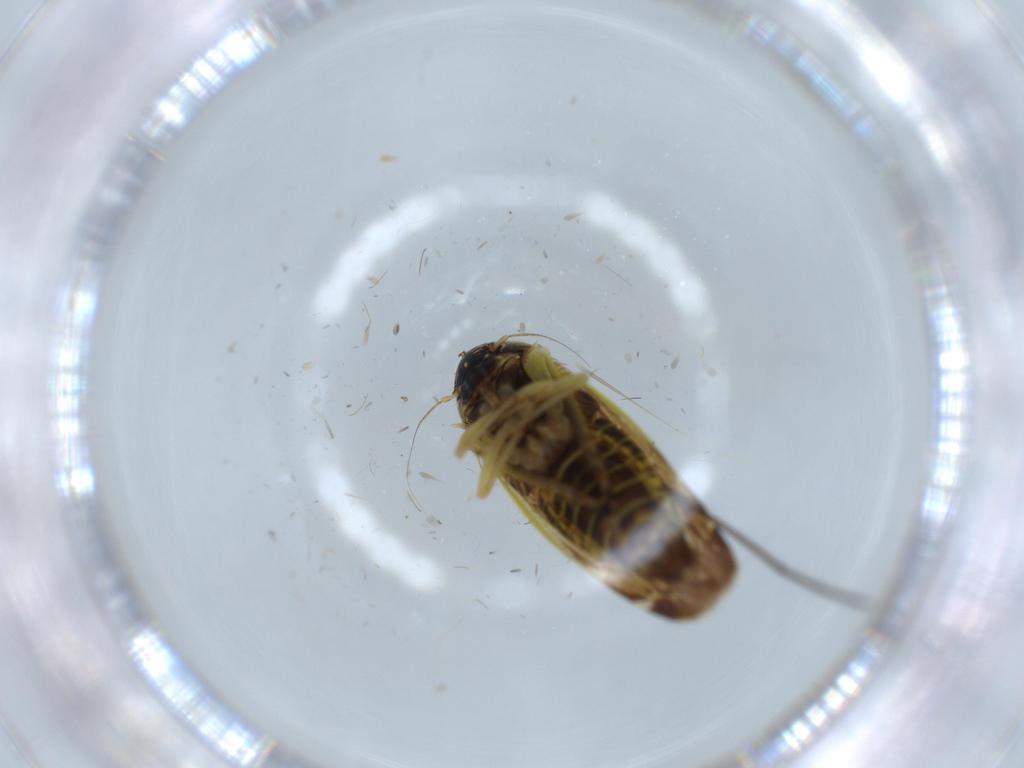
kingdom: Animalia
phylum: Arthropoda
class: Insecta
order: Hemiptera
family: Cicadellidae
